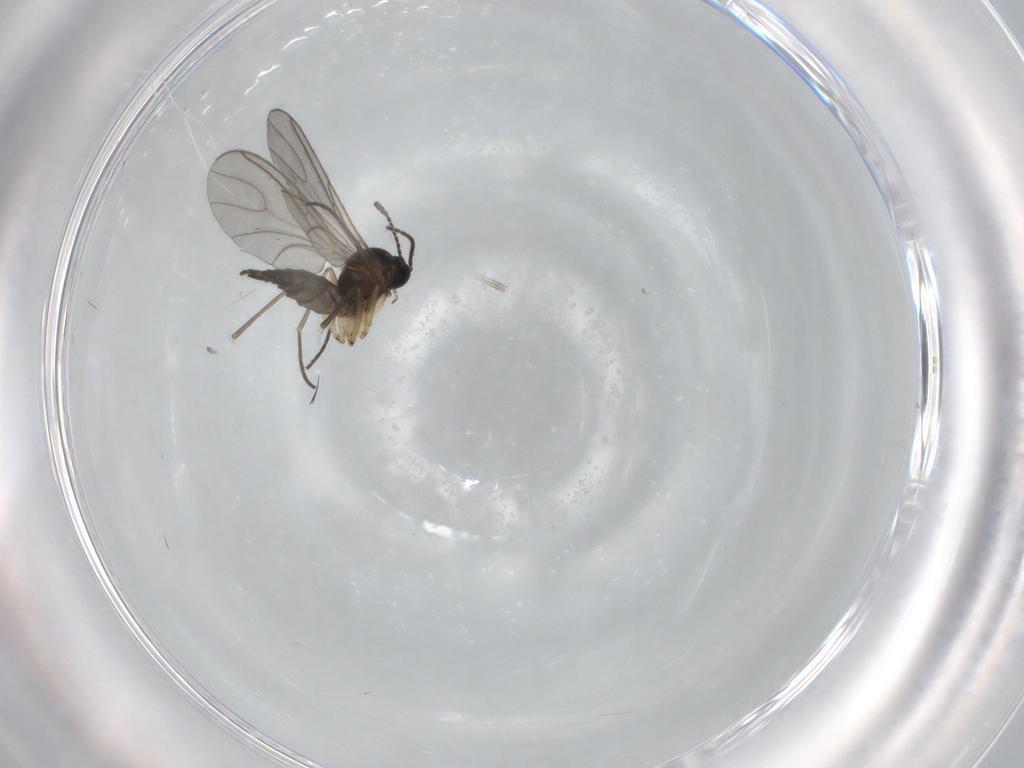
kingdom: Animalia
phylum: Arthropoda
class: Insecta
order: Diptera
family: Sciaridae
